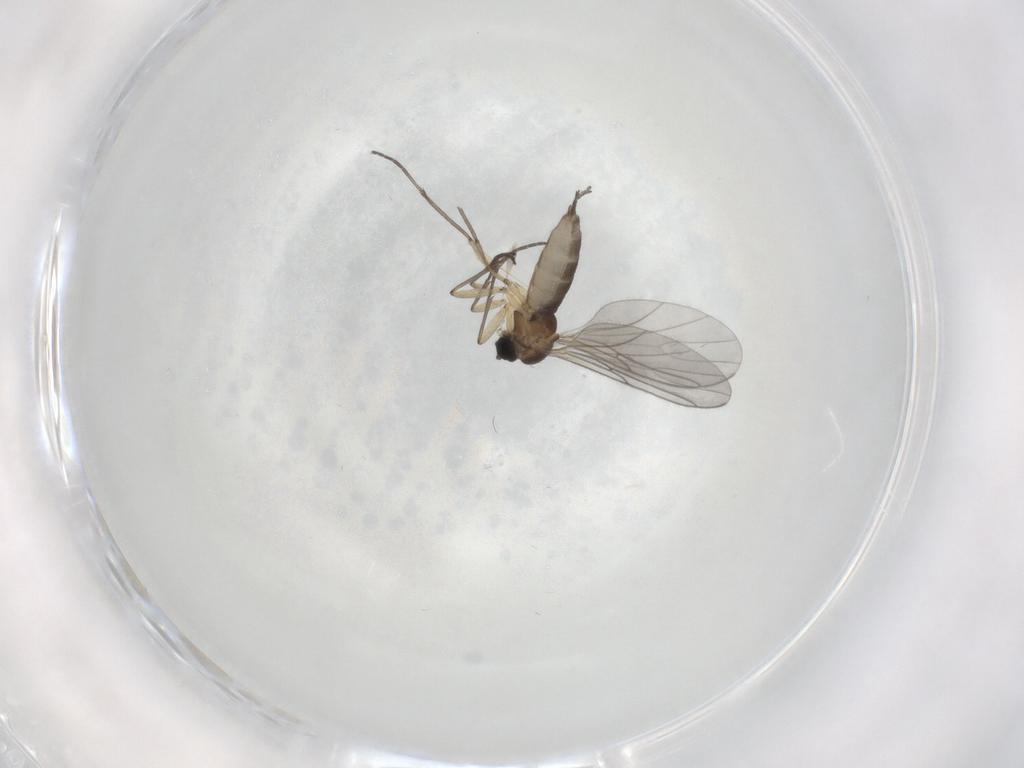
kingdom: Animalia
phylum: Arthropoda
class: Insecta
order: Diptera
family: Sciaridae
